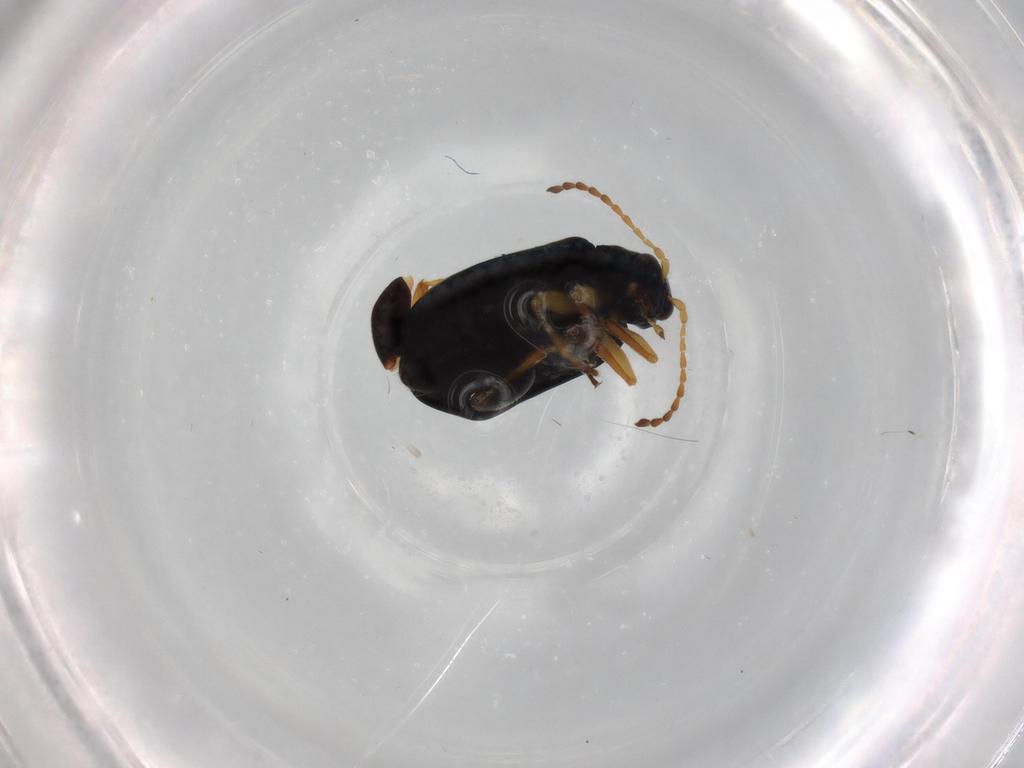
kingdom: Animalia
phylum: Arthropoda
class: Insecta
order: Coleoptera
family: Chrysomelidae
